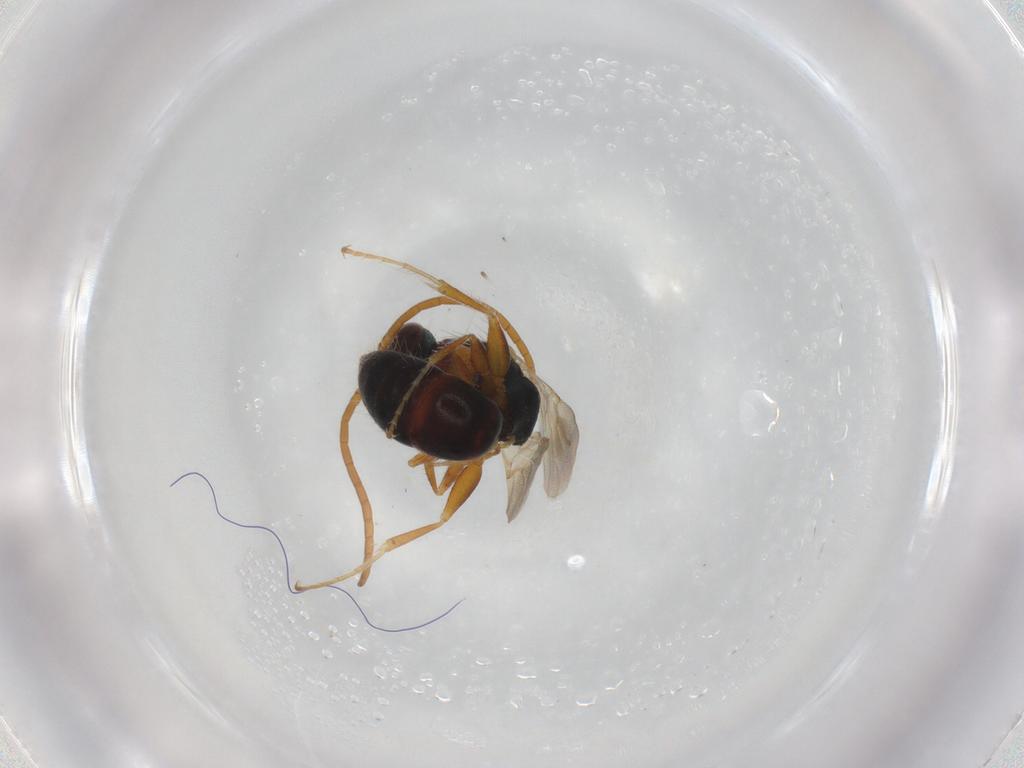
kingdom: Animalia
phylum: Arthropoda
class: Insecta
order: Hymenoptera
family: Bethylidae
